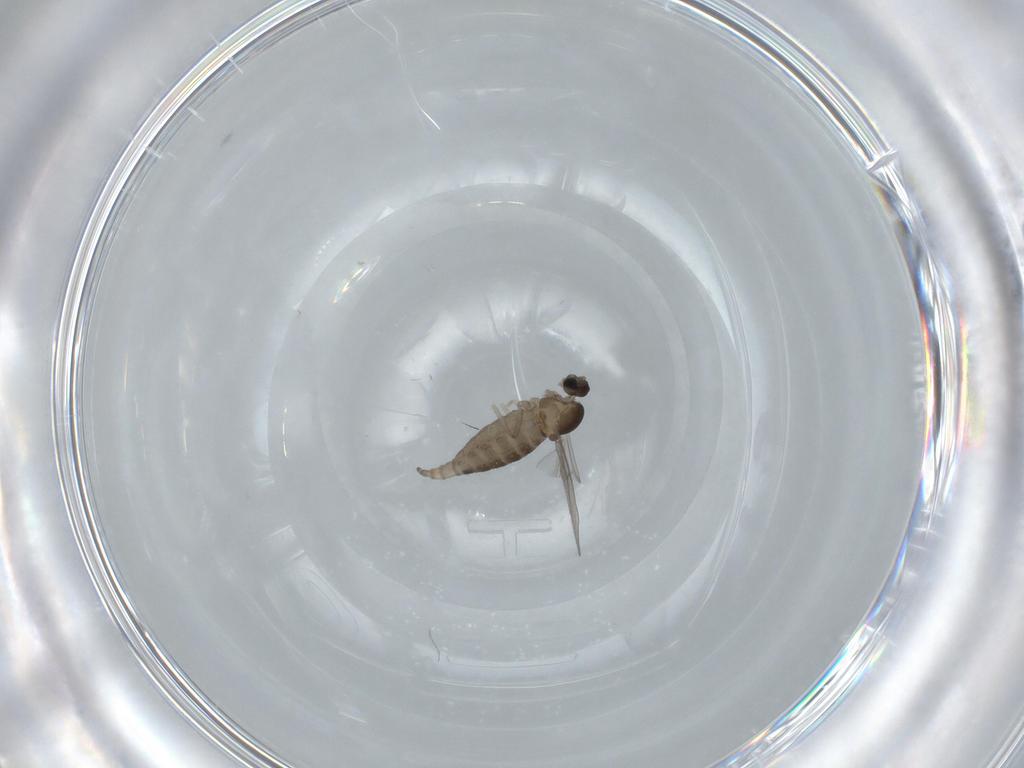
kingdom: Animalia
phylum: Arthropoda
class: Insecta
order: Diptera
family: Cecidomyiidae
